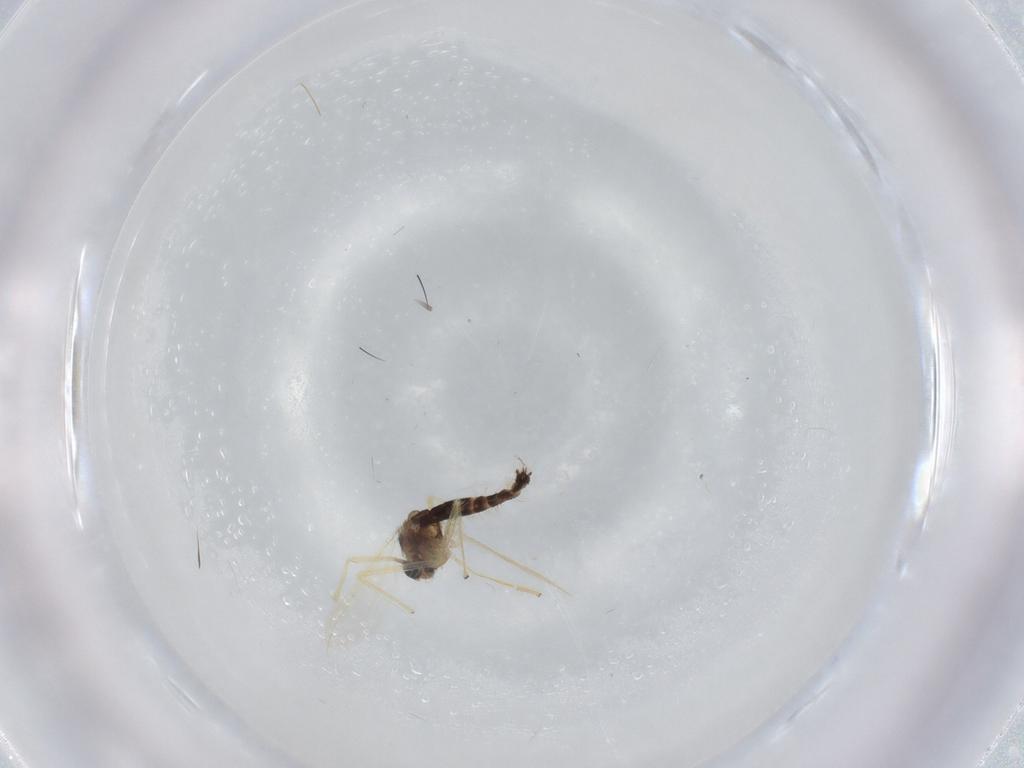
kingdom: Animalia
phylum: Arthropoda
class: Insecta
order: Diptera
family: Chironomidae
